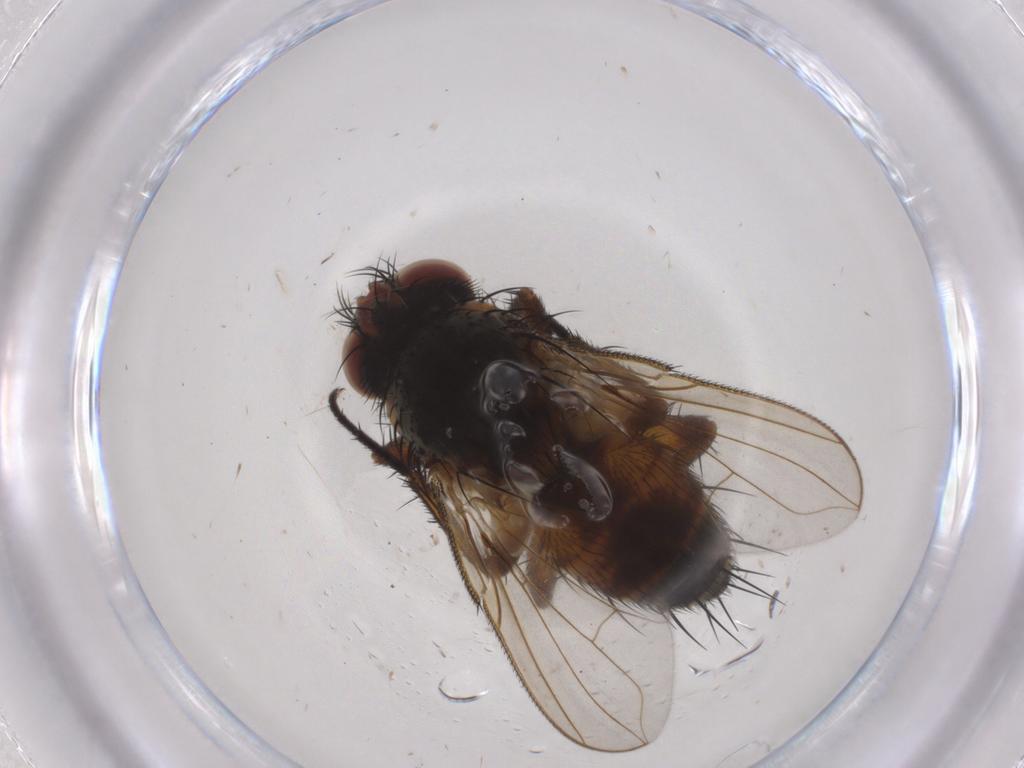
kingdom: Animalia
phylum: Arthropoda
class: Insecta
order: Diptera
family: Tachinidae
